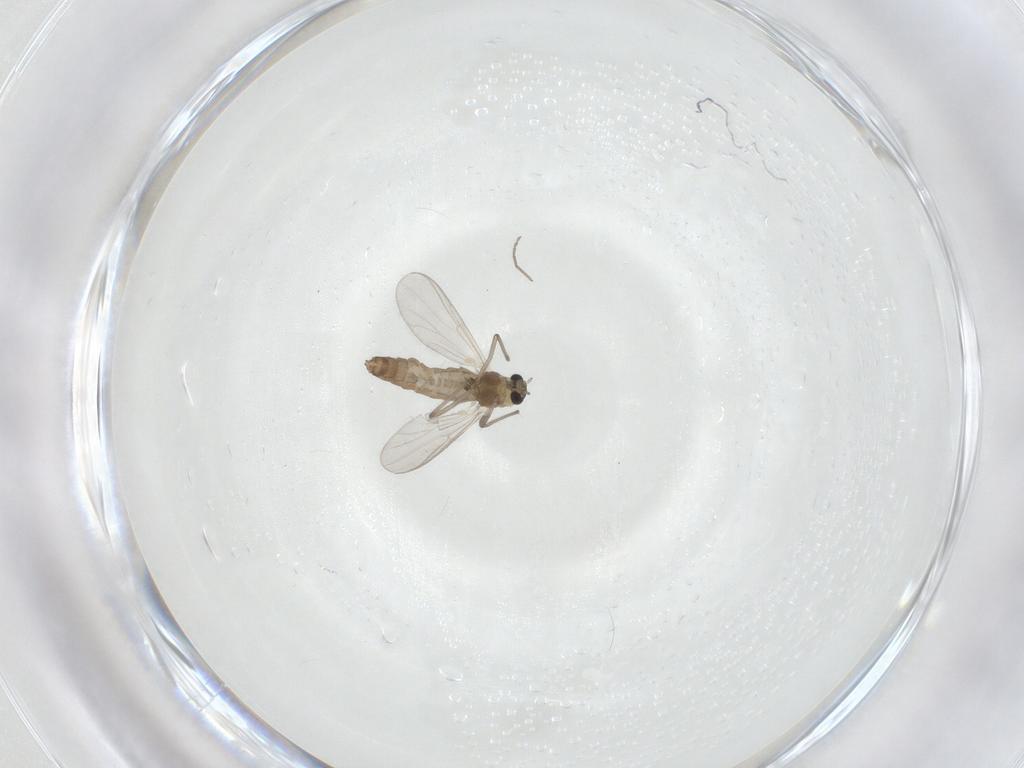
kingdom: Animalia
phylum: Arthropoda
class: Insecta
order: Diptera
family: Chironomidae
